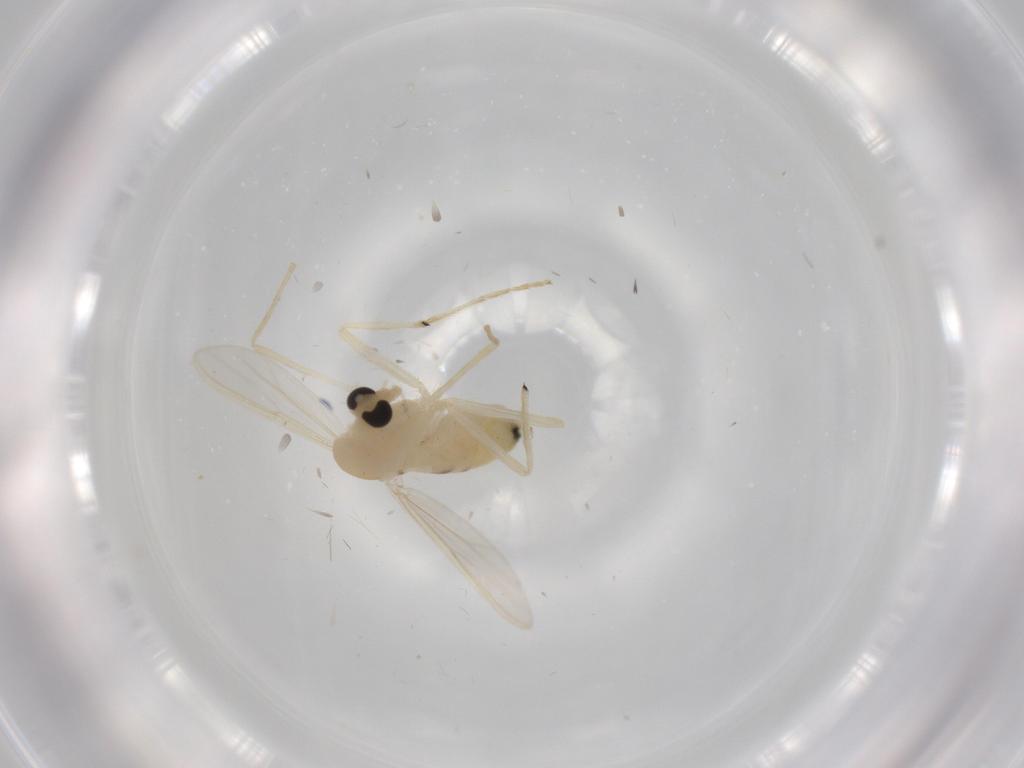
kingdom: Animalia
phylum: Arthropoda
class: Insecta
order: Diptera
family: Chironomidae
